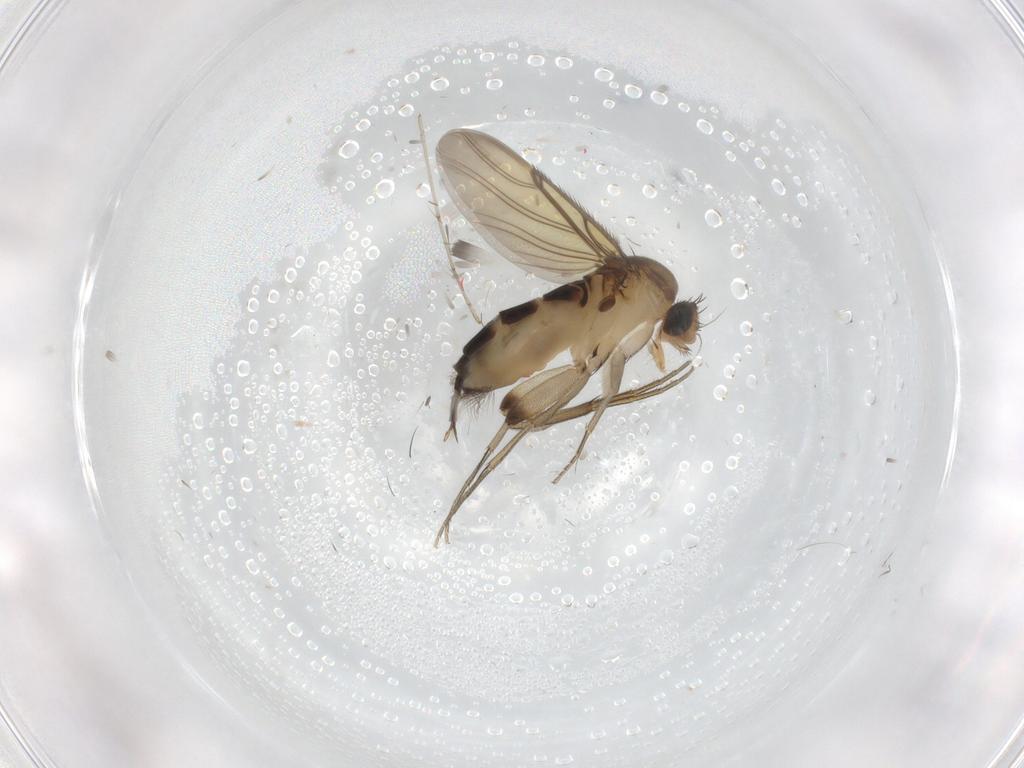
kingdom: Animalia
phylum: Arthropoda
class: Insecta
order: Diptera
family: Phoridae
